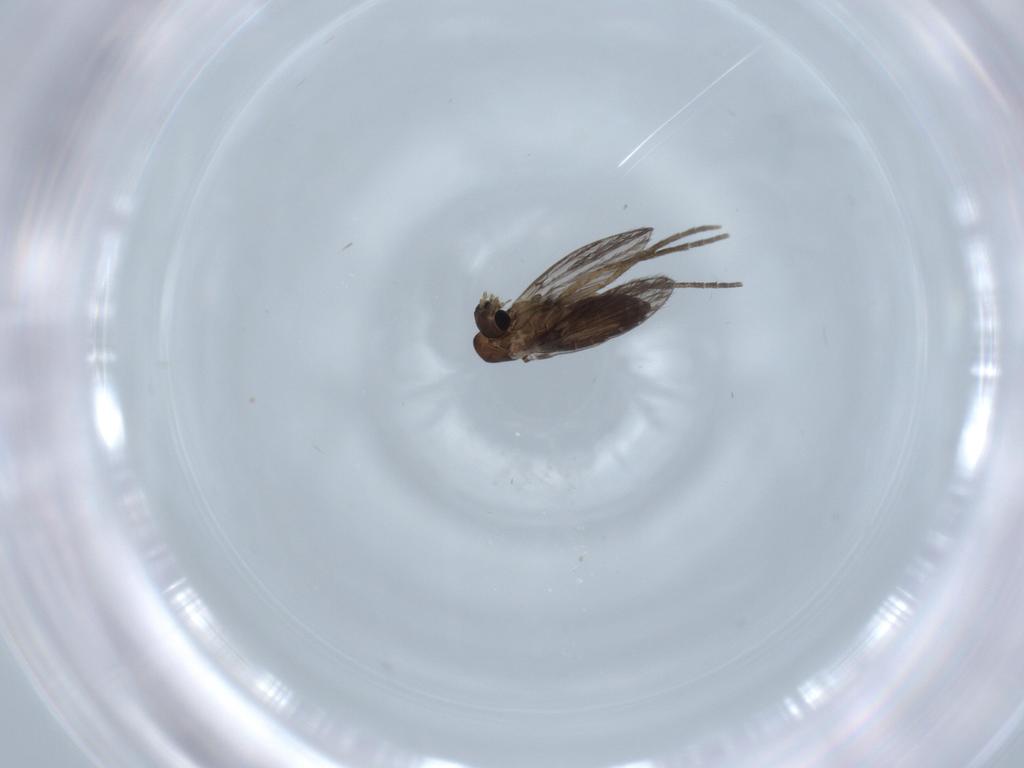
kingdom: Animalia
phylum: Arthropoda
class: Insecta
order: Diptera
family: Psychodidae
